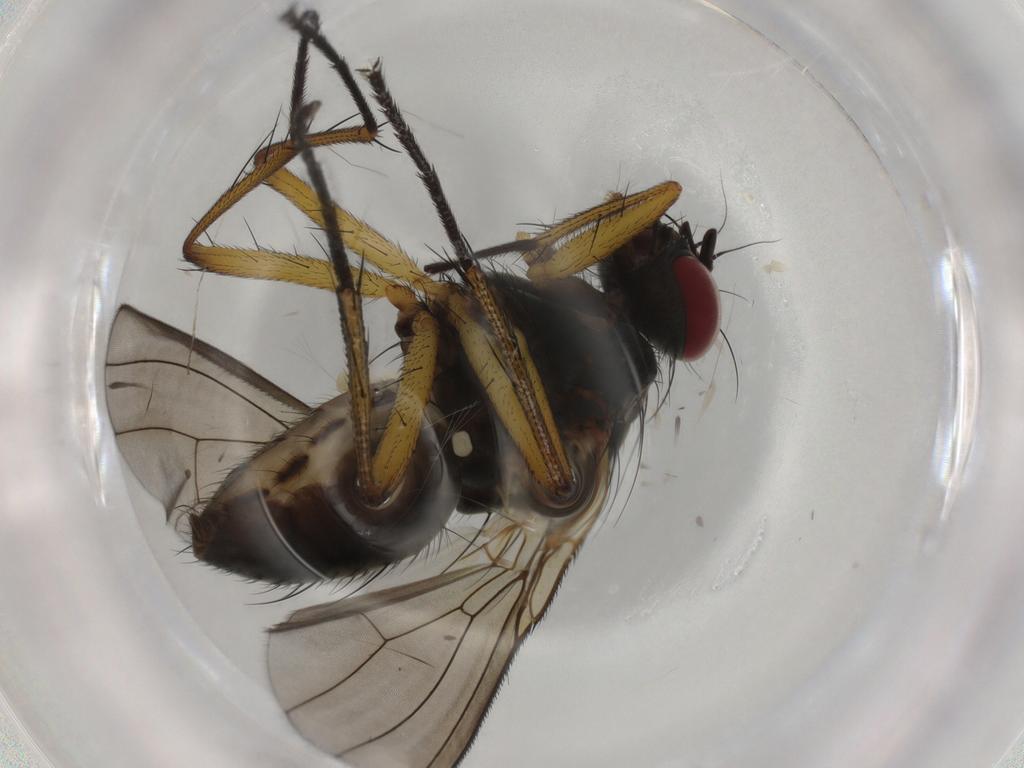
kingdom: Animalia
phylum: Arthropoda
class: Insecta
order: Diptera
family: Muscidae
